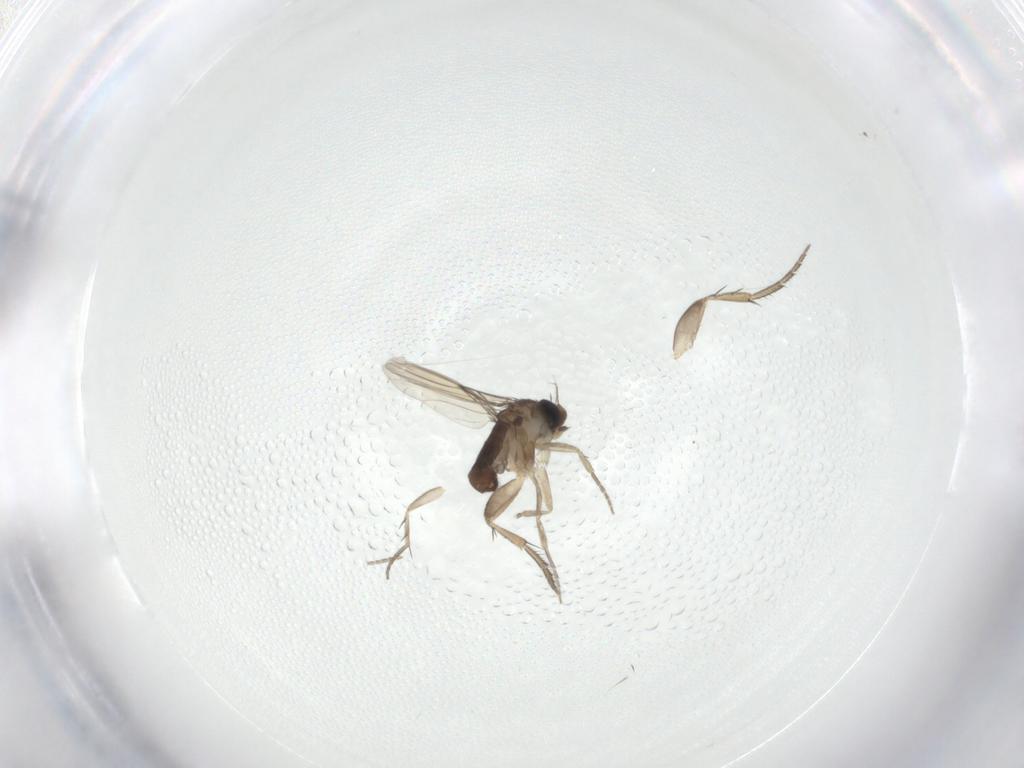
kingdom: Animalia
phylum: Arthropoda
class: Insecta
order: Diptera
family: Phoridae
